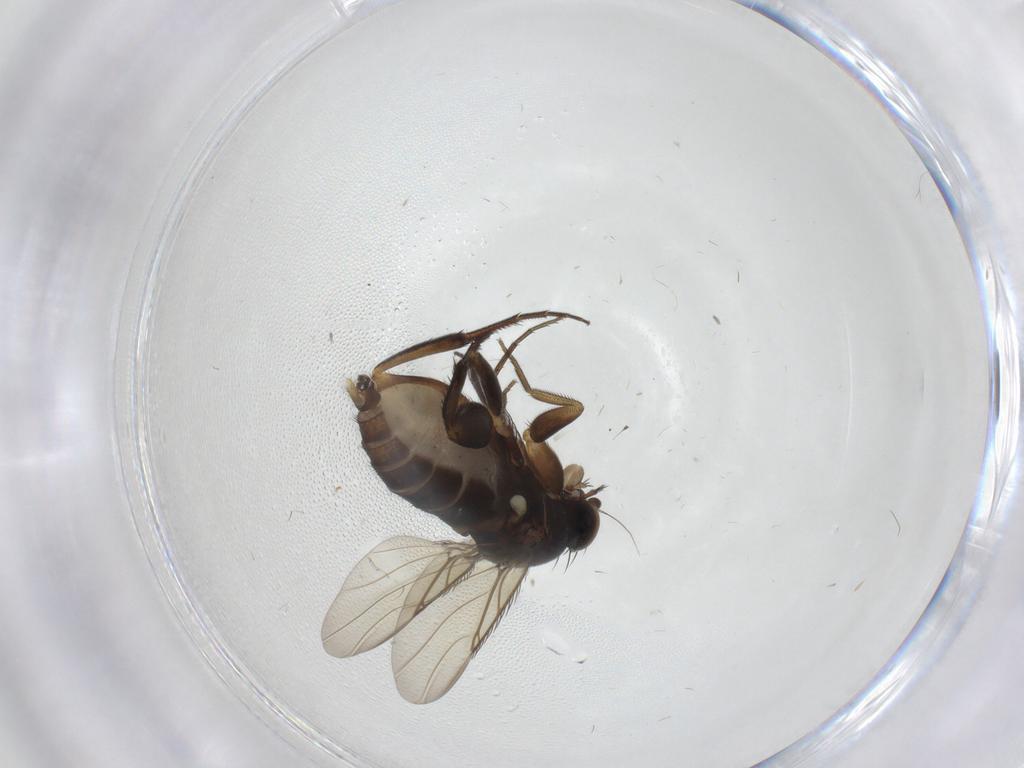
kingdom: Animalia
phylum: Arthropoda
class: Insecta
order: Diptera
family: Phoridae
